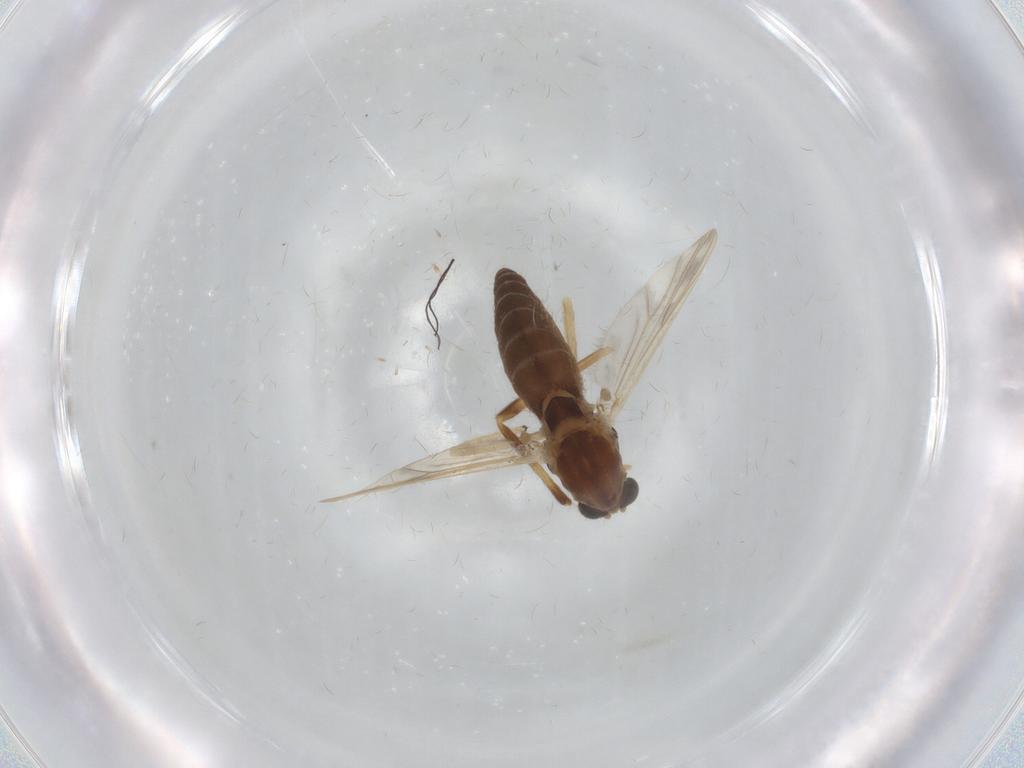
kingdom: Animalia
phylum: Arthropoda
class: Insecta
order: Diptera
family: Chironomidae
